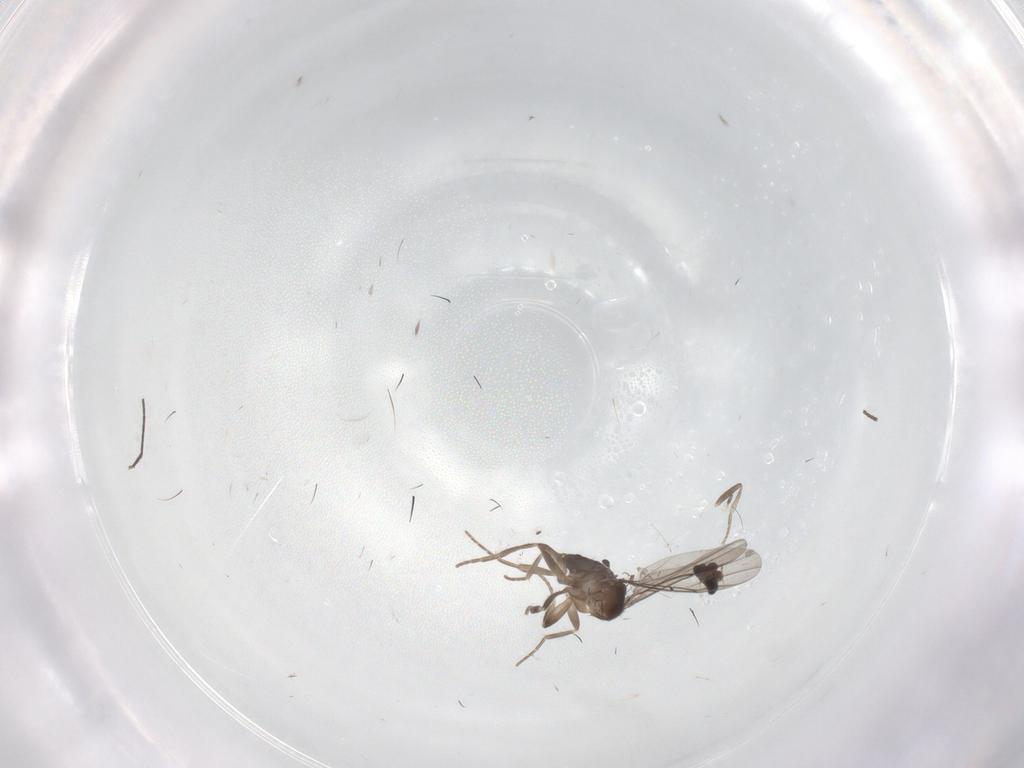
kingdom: Animalia
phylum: Arthropoda
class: Insecta
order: Diptera
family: Cecidomyiidae
